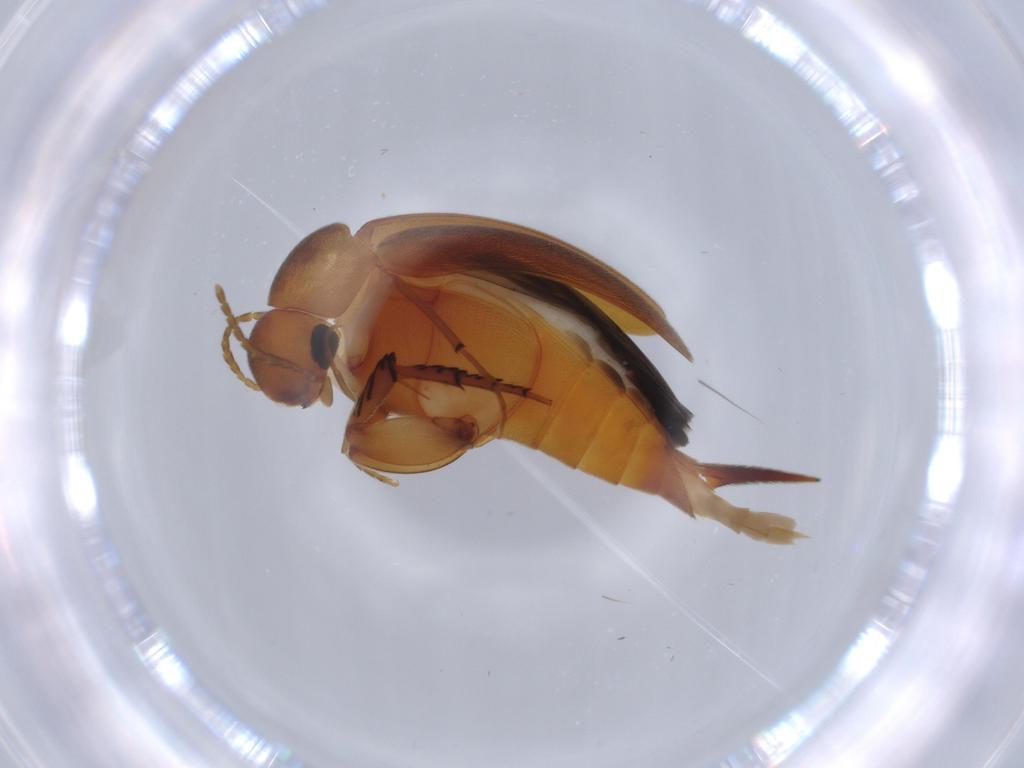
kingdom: Animalia
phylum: Arthropoda
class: Insecta
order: Coleoptera
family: Mordellidae
